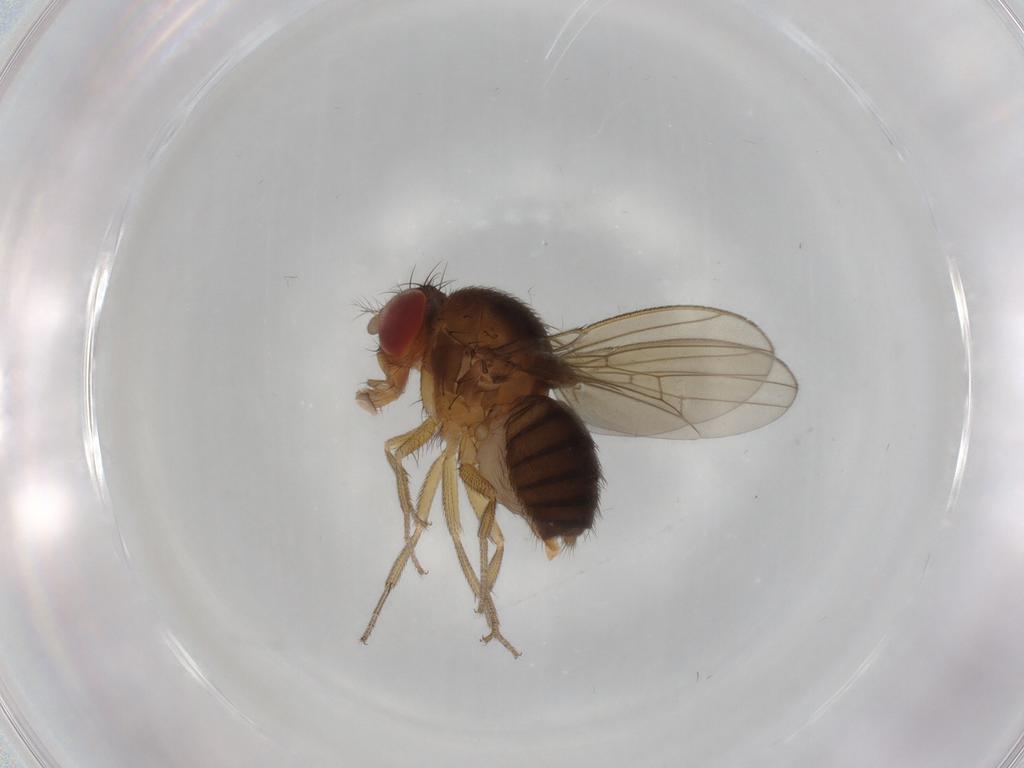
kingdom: Animalia
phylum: Arthropoda
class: Insecta
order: Diptera
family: Drosophilidae
